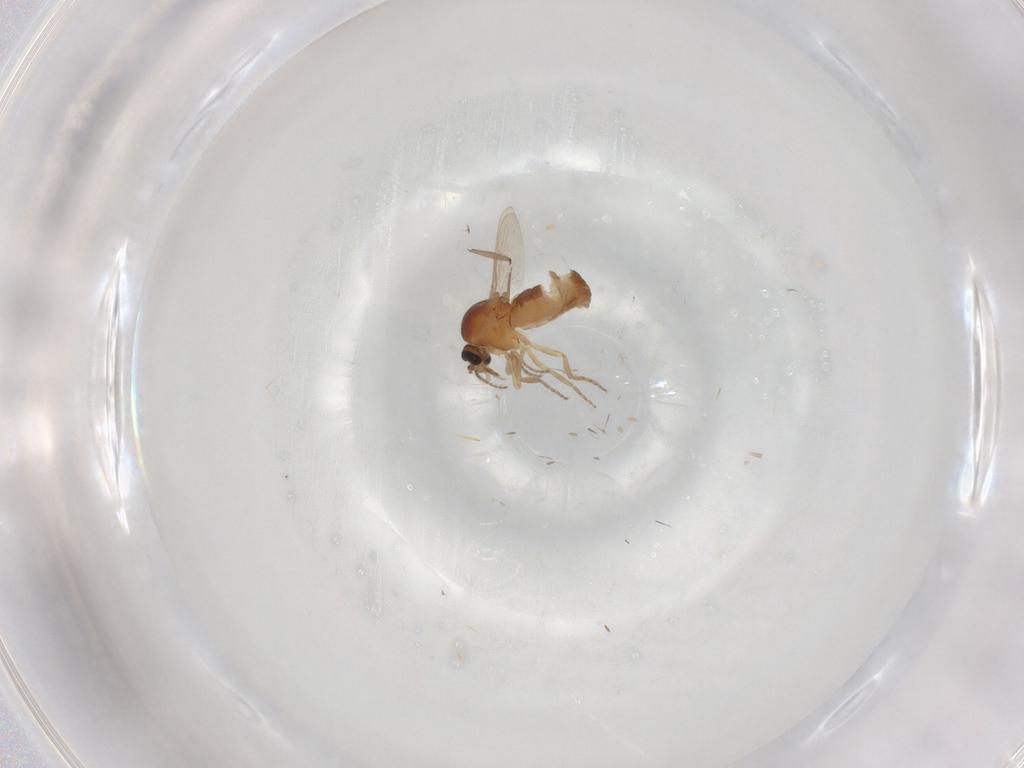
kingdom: Animalia
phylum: Arthropoda
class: Insecta
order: Diptera
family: Ceratopogonidae
